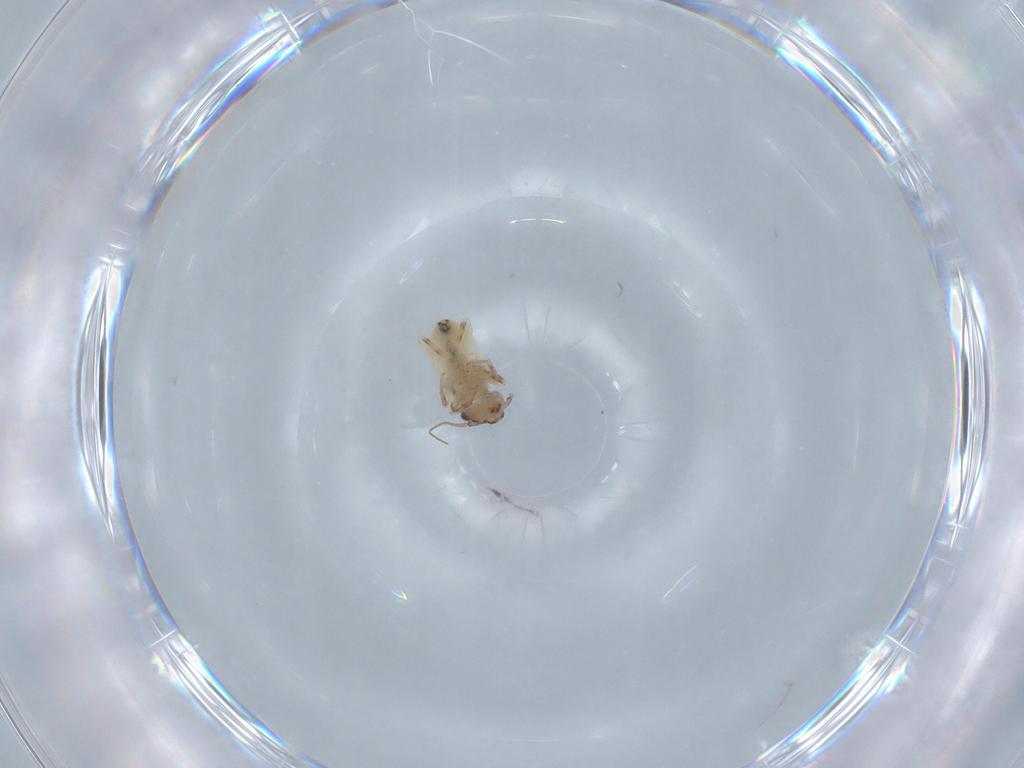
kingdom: Animalia
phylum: Arthropoda
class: Insecta
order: Psocodea
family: Lepidopsocidae
